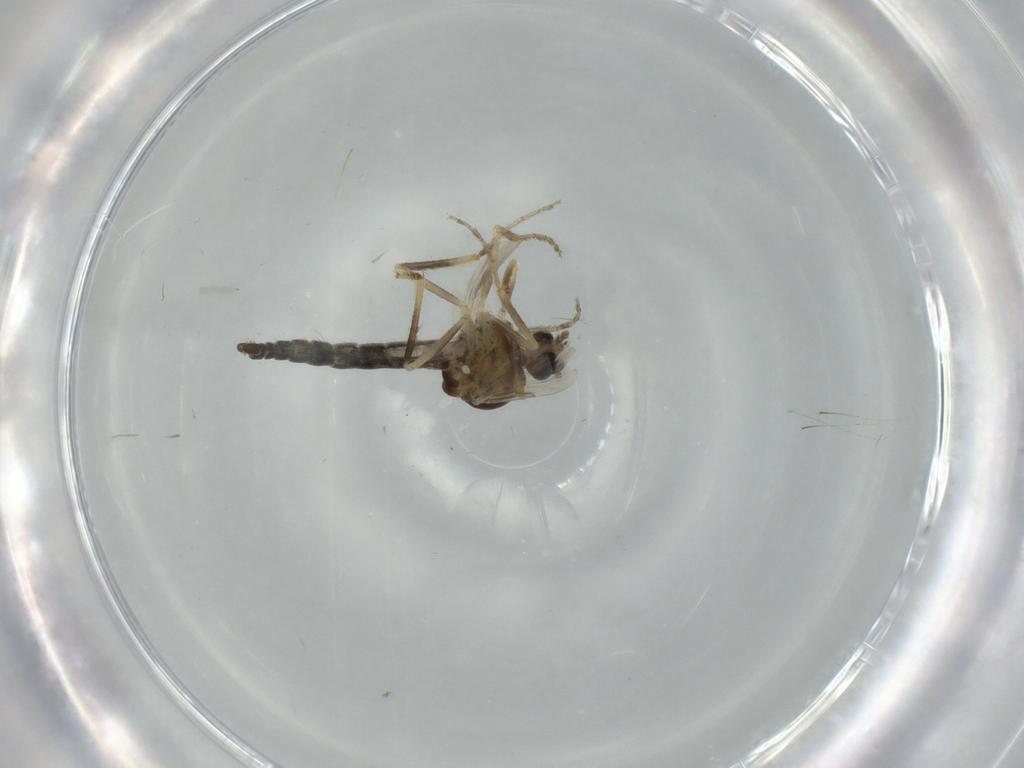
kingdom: Animalia
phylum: Arthropoda
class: Insecta
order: Diptera
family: Ceratopogonidae
